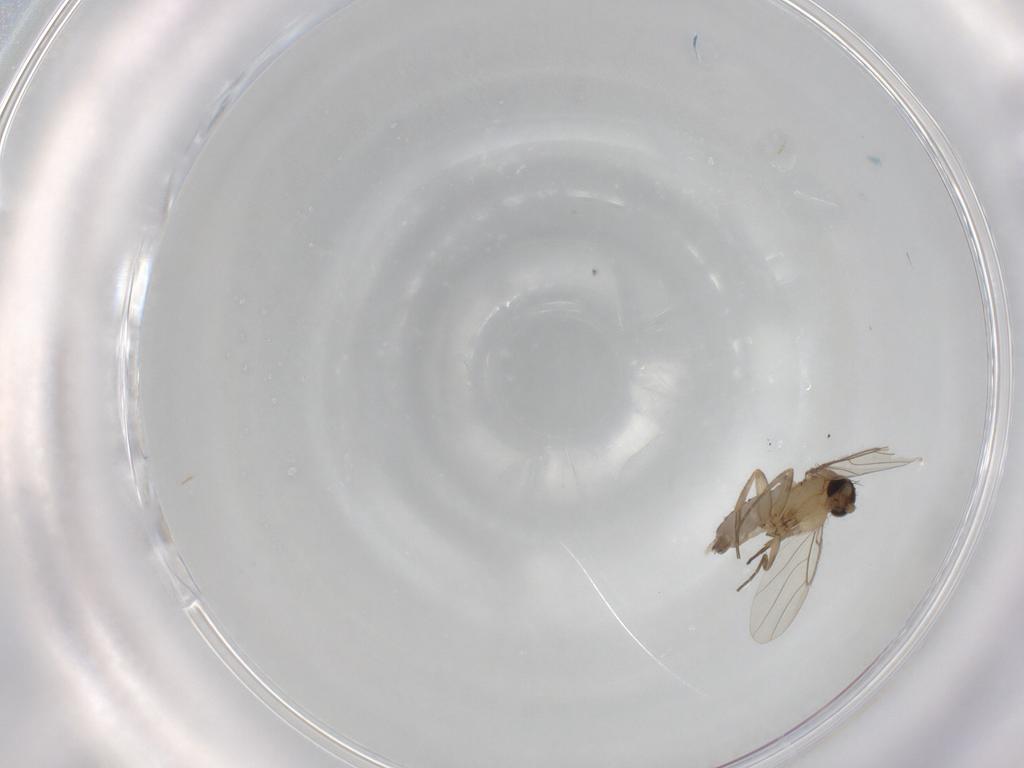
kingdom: Animalia
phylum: Arthropoda
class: Insecta
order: Diptera
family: Phoridae
